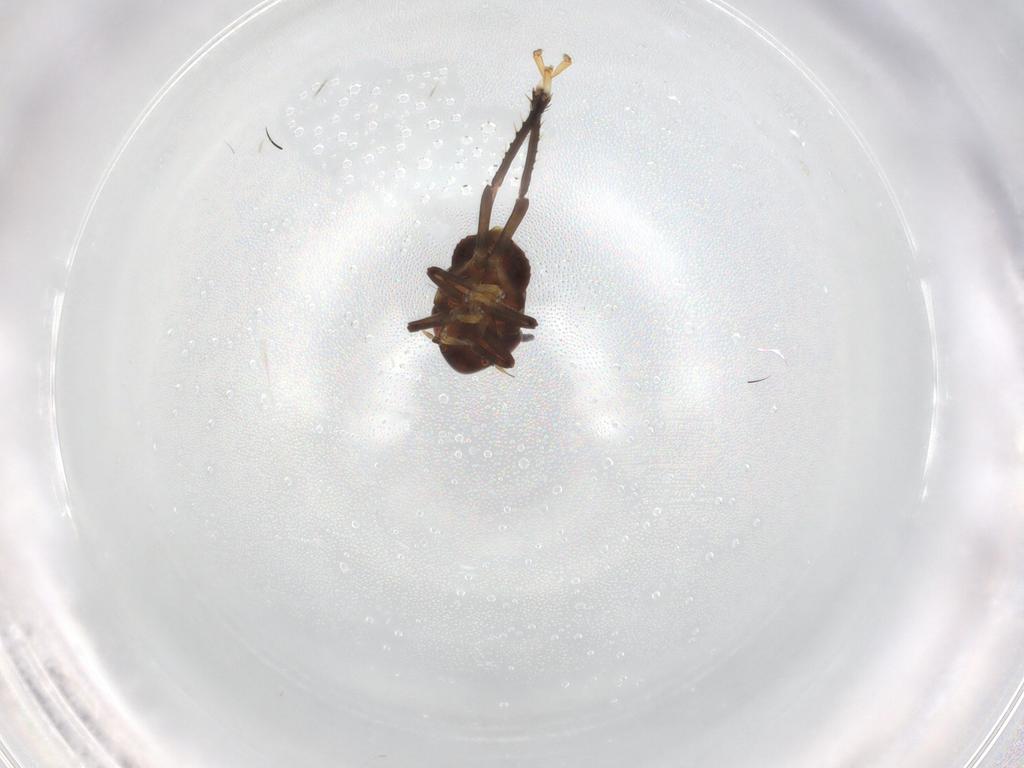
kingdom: Animalia
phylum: Arthropoda
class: Insecta
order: Hemiptera
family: Cicadellidae
